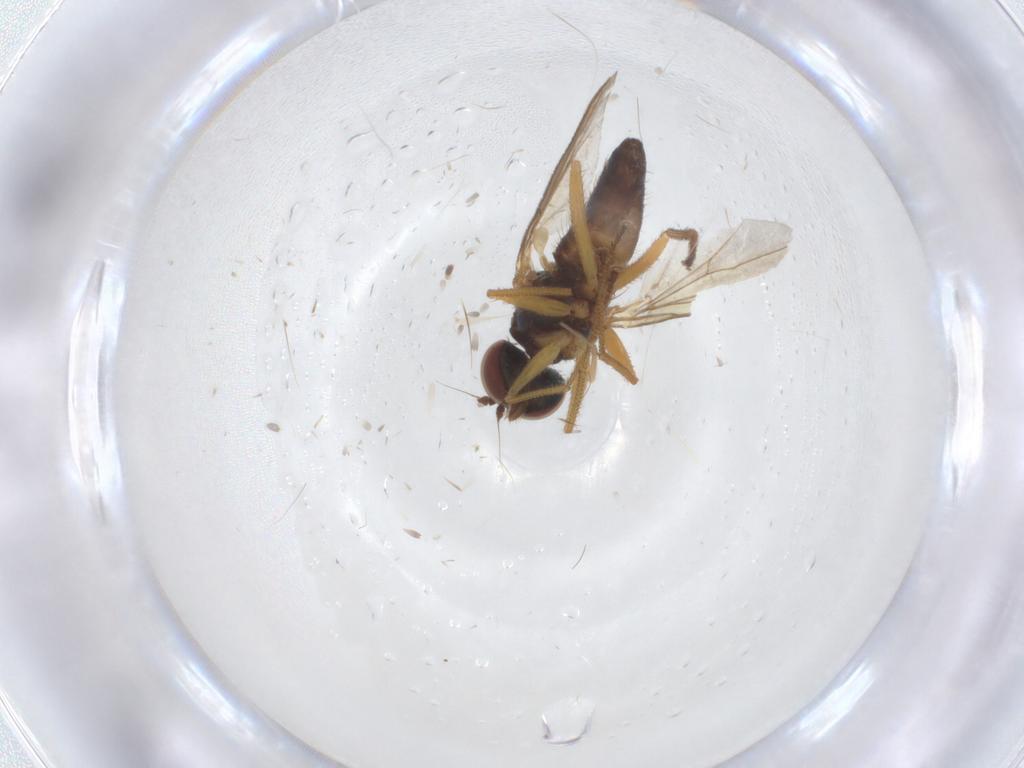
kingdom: Animalia
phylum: Arthropoda
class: Insecta
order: Diptera
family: Dolichopodidae
